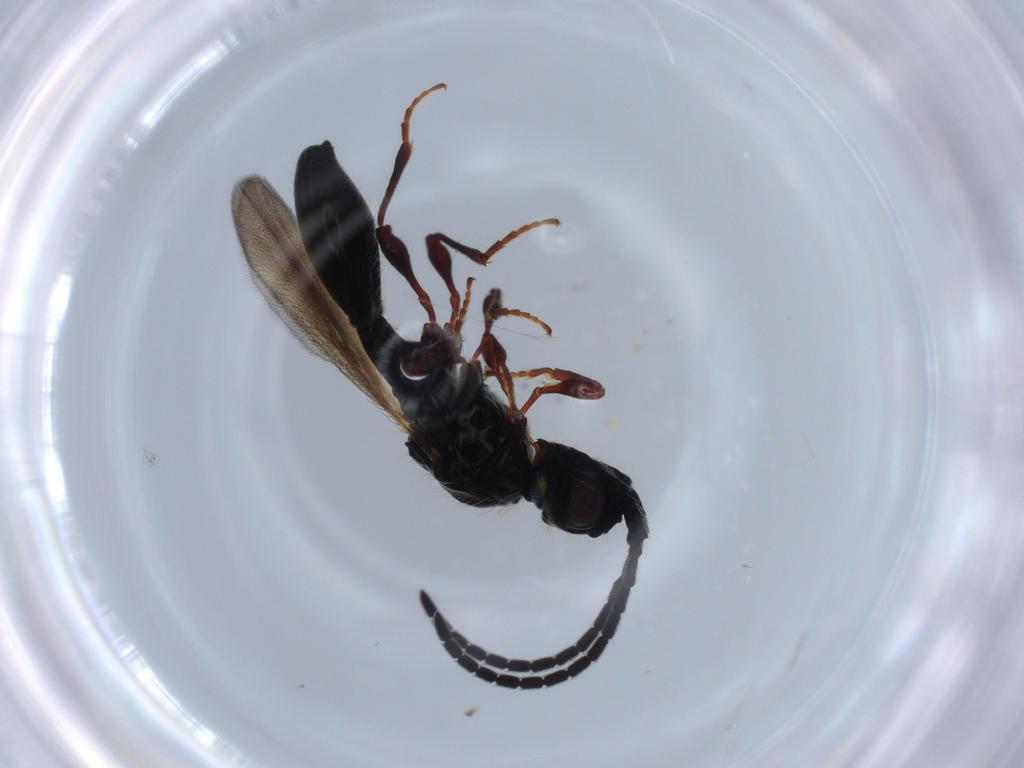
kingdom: Animalia
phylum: Arthropoda
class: Insecta
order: Hymenoptera
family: Diapriidae
